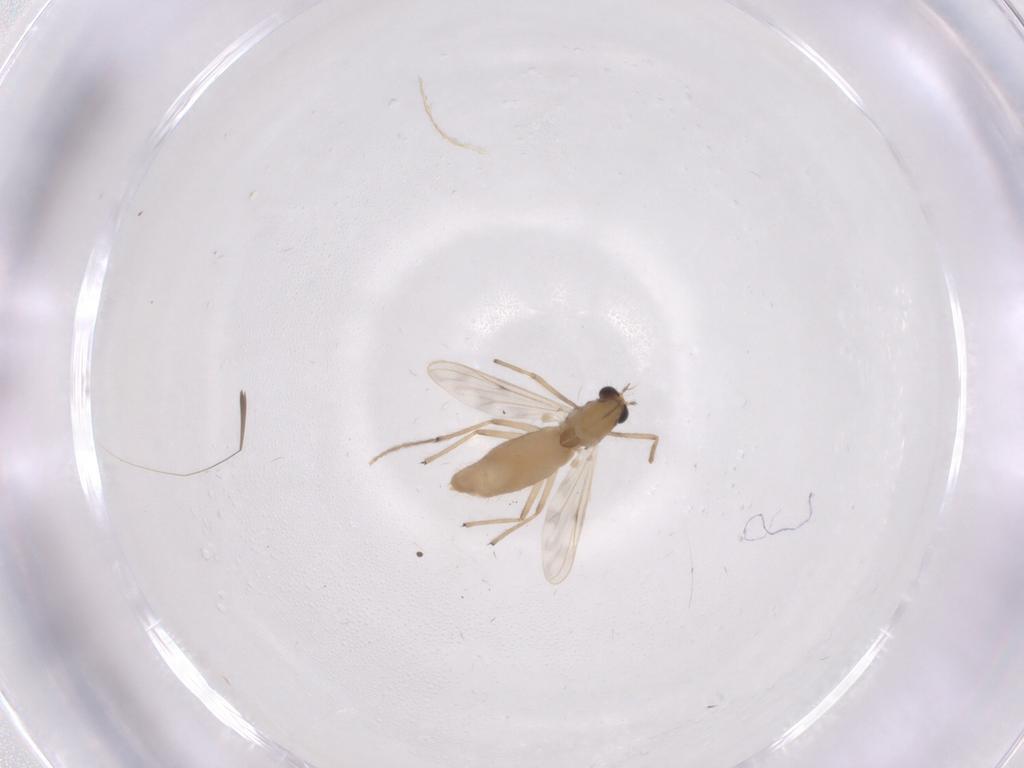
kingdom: Animalia
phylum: Arthropoda
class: Insecta
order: Diptera
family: Chironomidae
